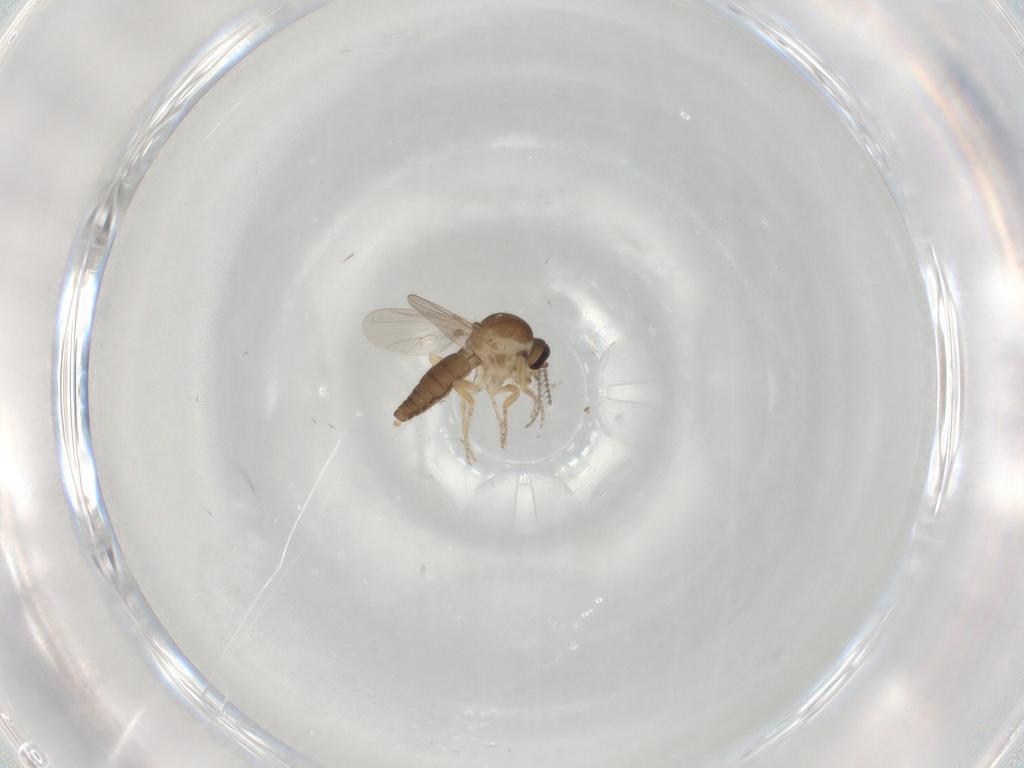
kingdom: Animalia
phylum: Arthropoda
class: Insecta
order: Diptera
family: Ceratopogonidae
